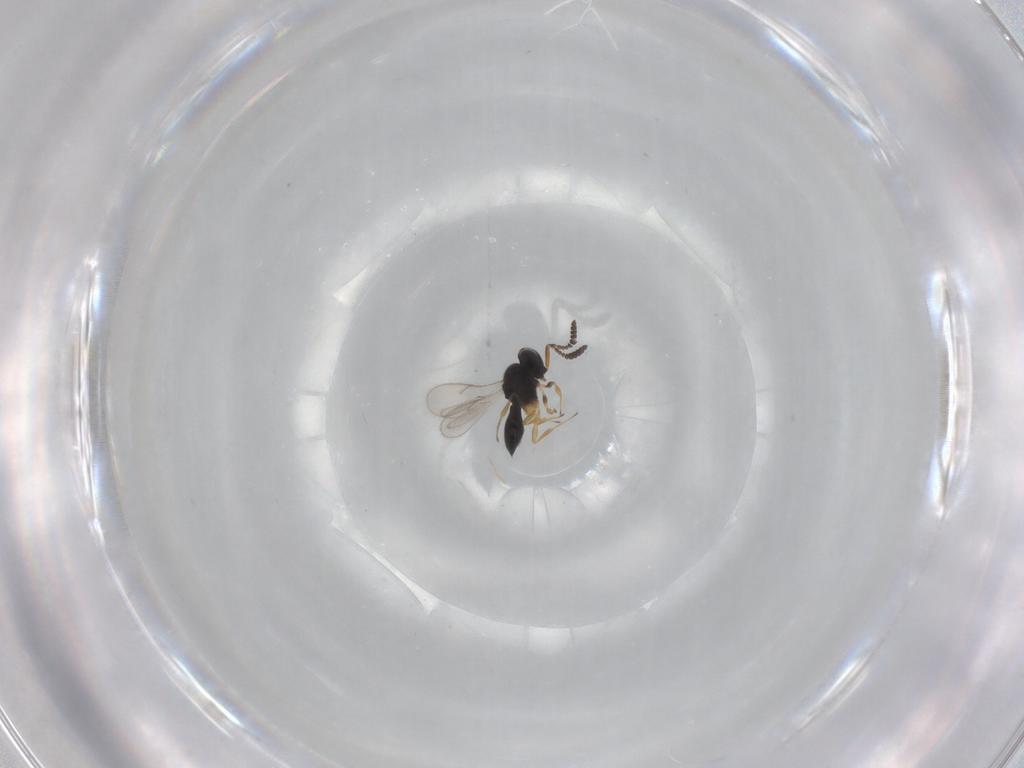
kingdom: Animalia
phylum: Arthropoda
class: Insecta
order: Hymenoptera
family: Scelionidae
